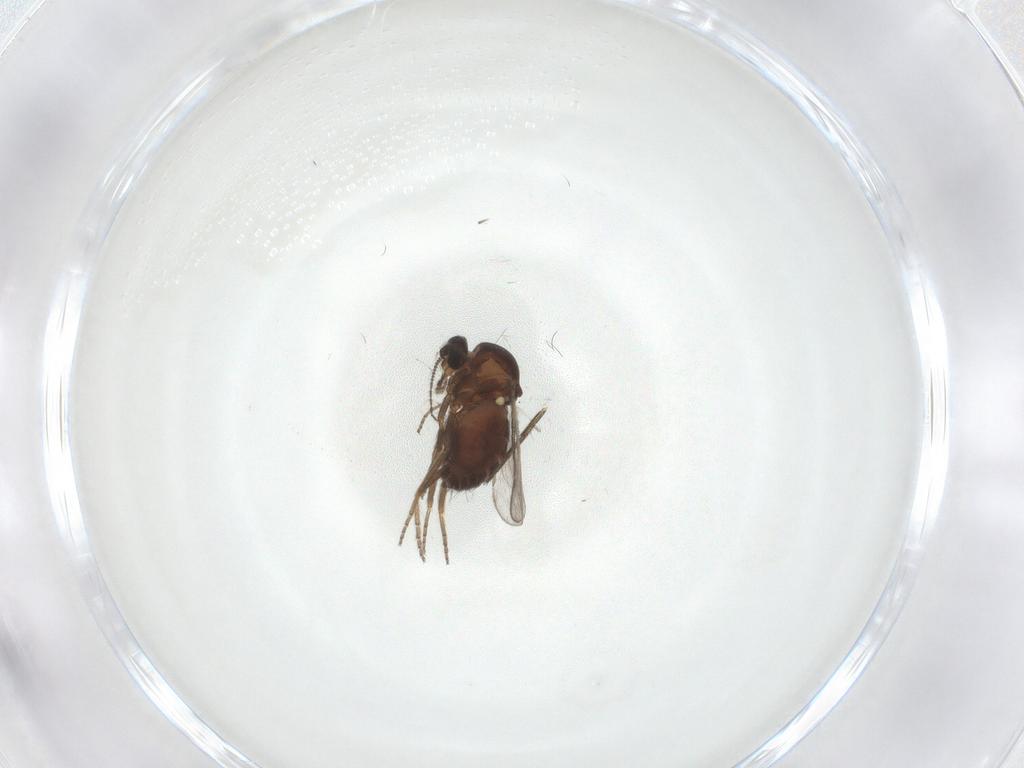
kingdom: Animalia
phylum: Arthropoda
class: Insecta
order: Diptera
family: Ceratopogonidae
